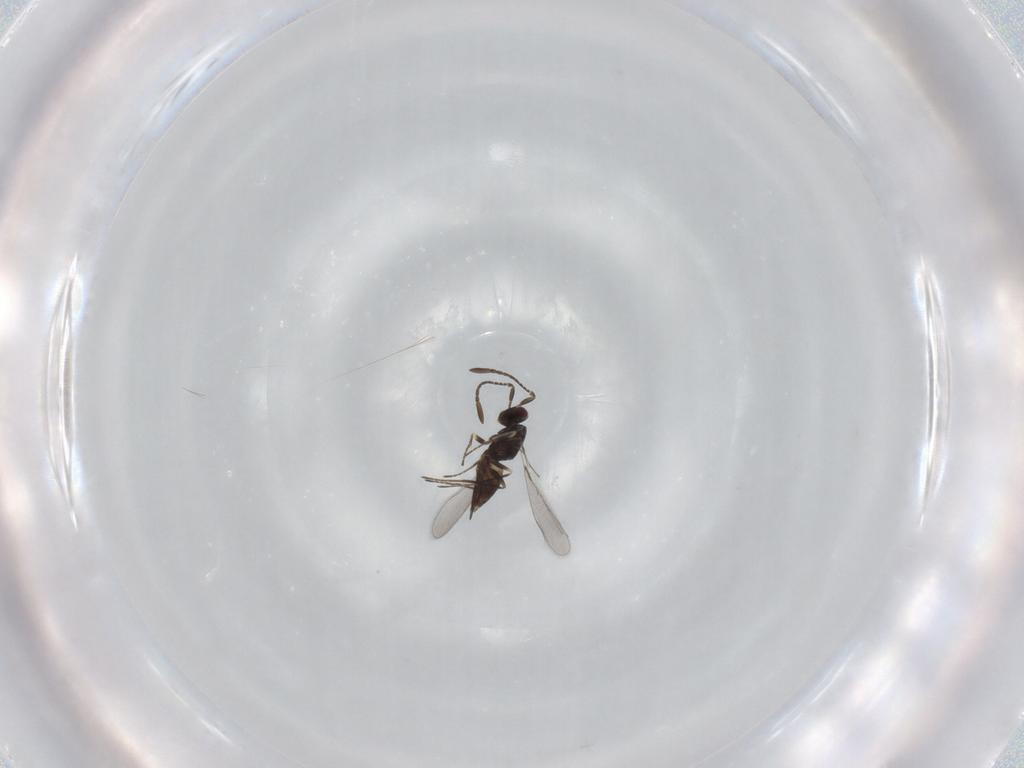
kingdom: Animalia
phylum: Arthropoda
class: Insecta
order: Hymenoptera
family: Mymaridae
